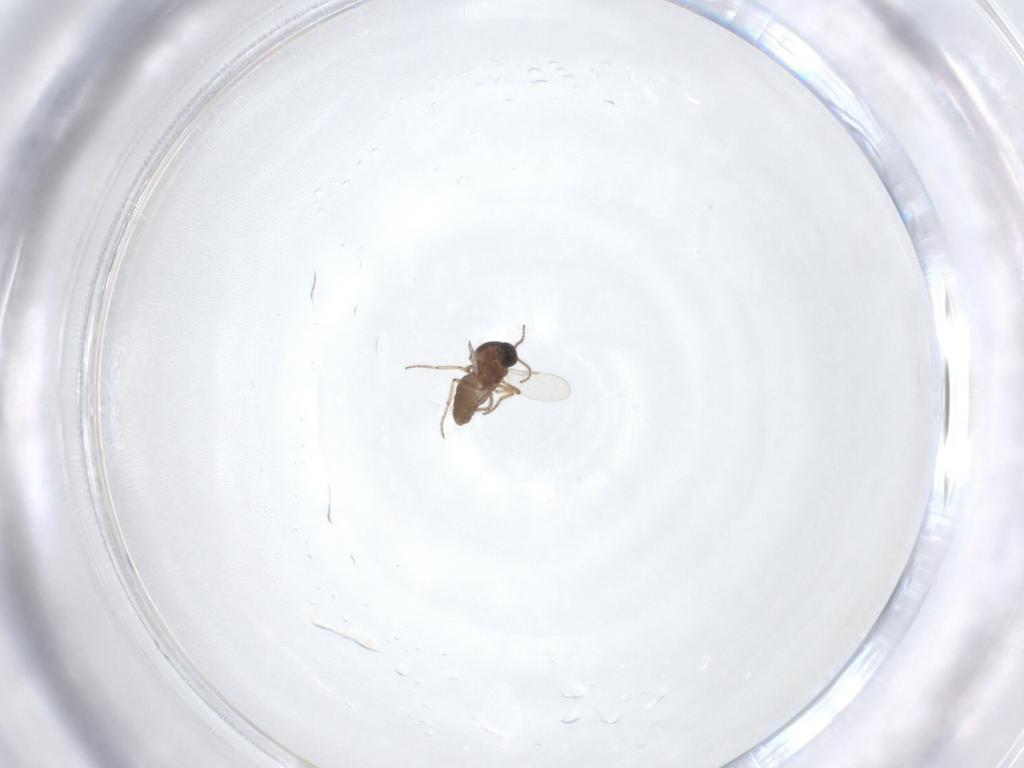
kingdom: Animalia
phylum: Arthropoda
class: Insecta
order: Diptera
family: Ceratopogonidae
